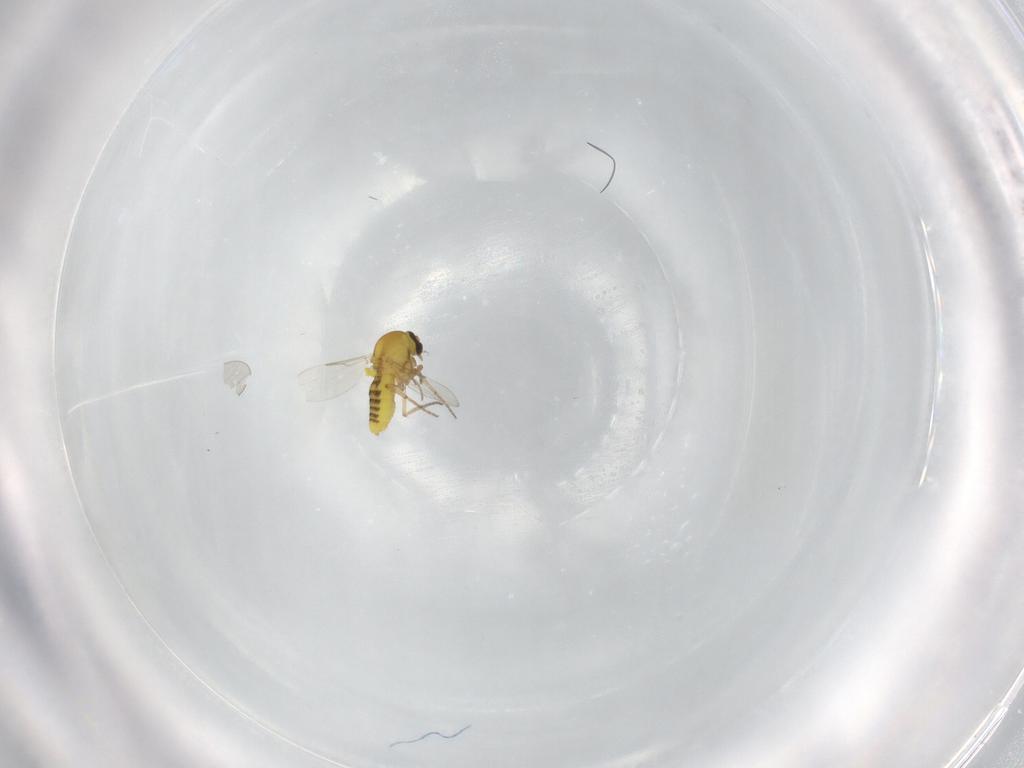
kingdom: Animalia
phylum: Arthropoda
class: Insecta
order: Diptera
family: Ceratopogonidae
